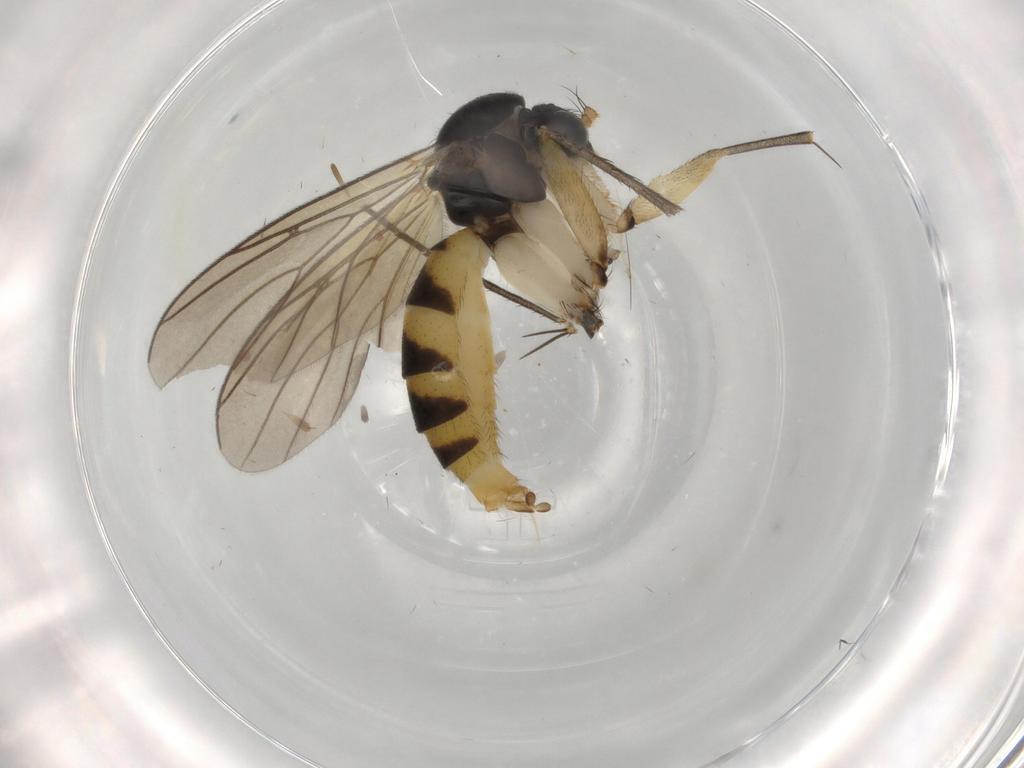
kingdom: Animalia
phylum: Arthropoda
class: Insecta
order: Diptera
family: Mycetophilidae
